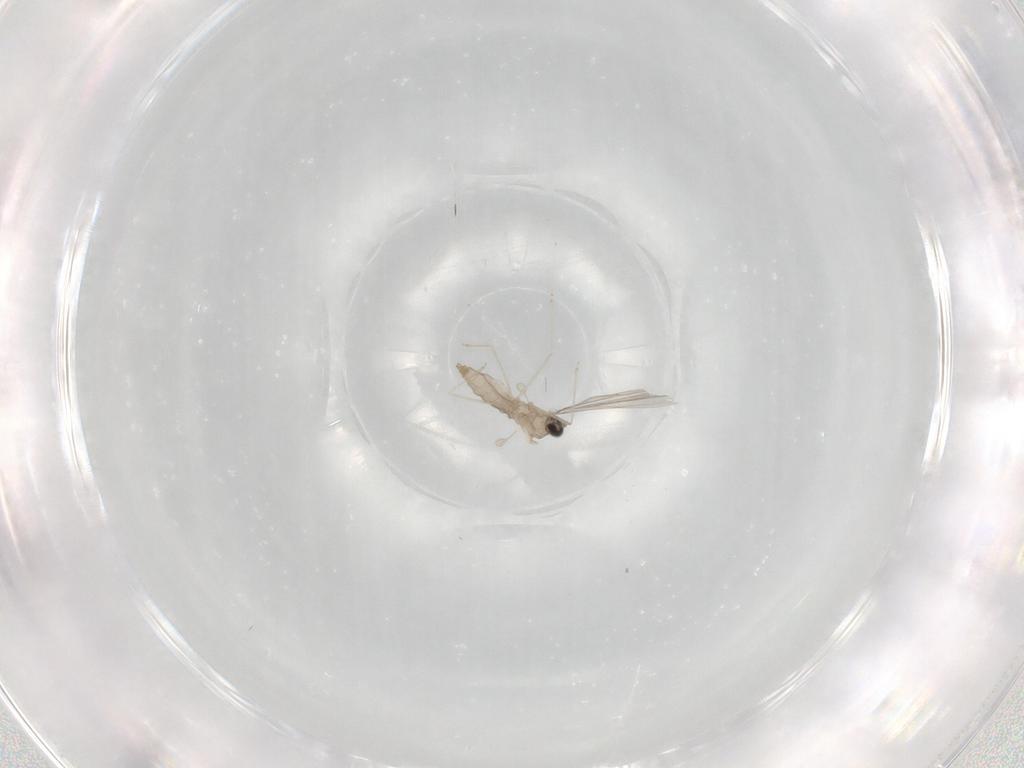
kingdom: Animalia
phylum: Arthropoda
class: Insecta
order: Diptera
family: Cecidomyiidae
